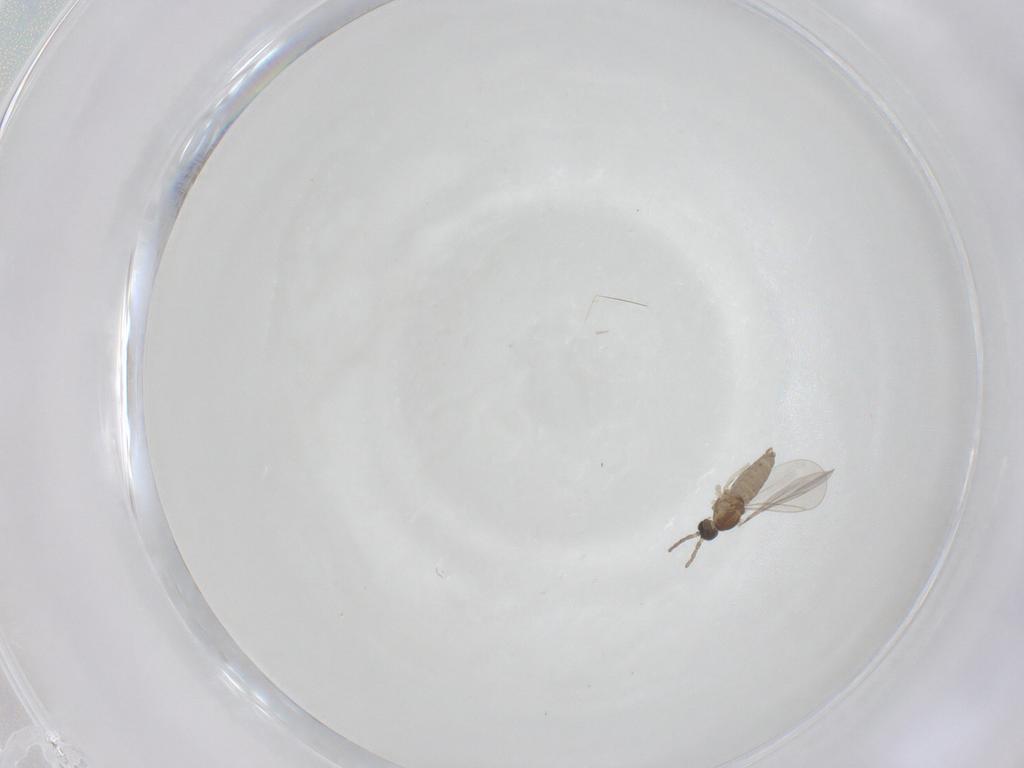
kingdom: Animalia
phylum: Arthropoda
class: Insecta
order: Diptera
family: Cecidomyiidae
